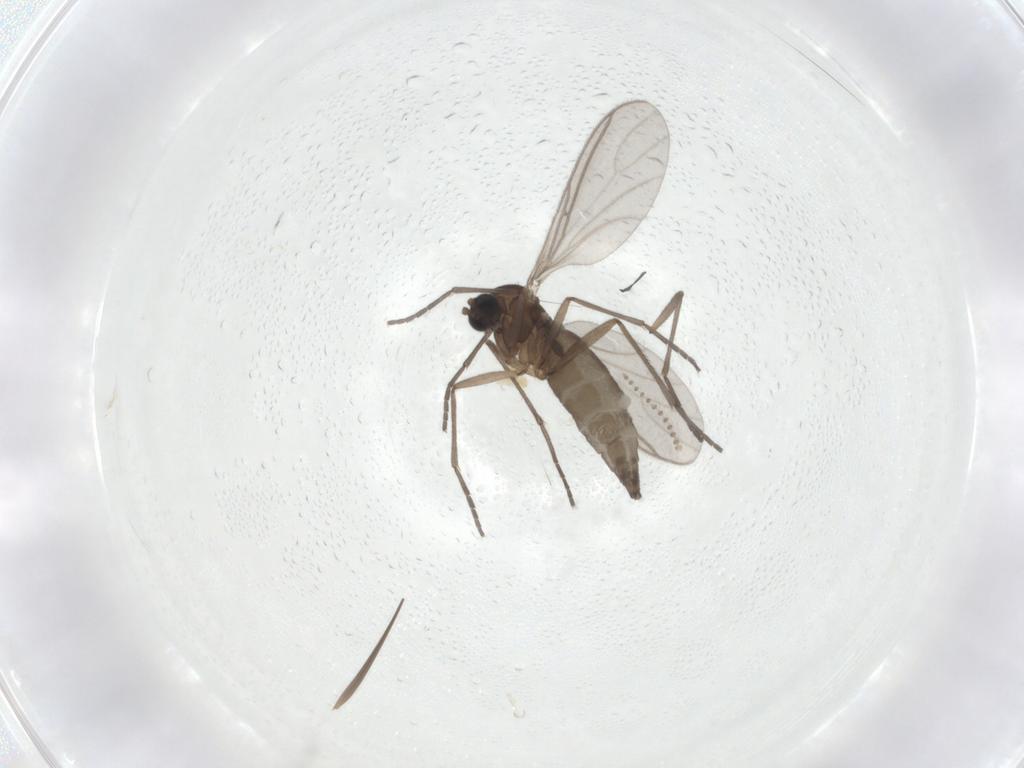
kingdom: Animalia
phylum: Arthropoda
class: Insecta
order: Diptera
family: Psychodidae
